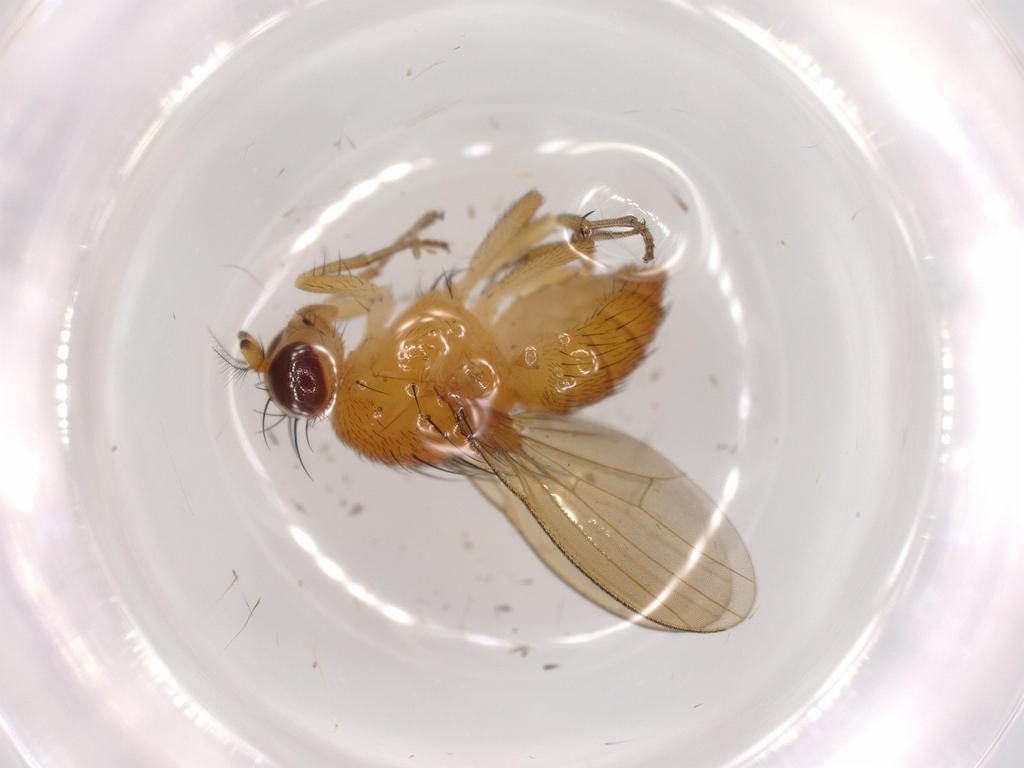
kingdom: Animalia
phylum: Arthropoda
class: Insecta
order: Diptera
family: Lauxaniidae
